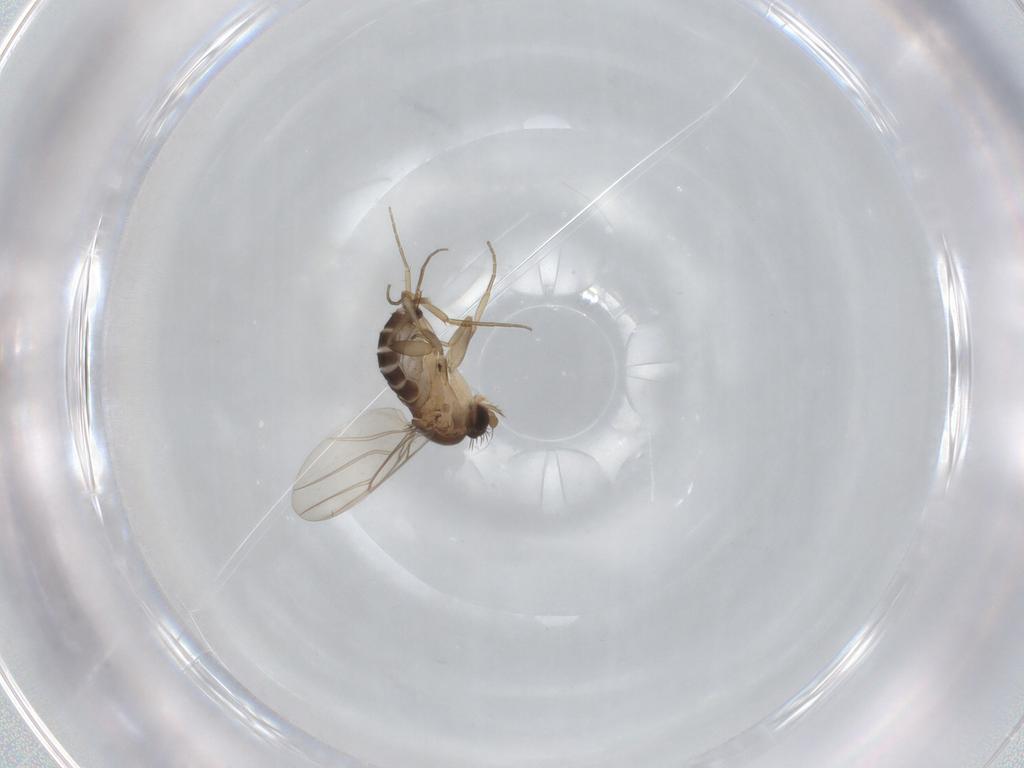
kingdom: Animalia
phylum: Arthropoda
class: Insecta
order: Diptera
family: Phoridae
